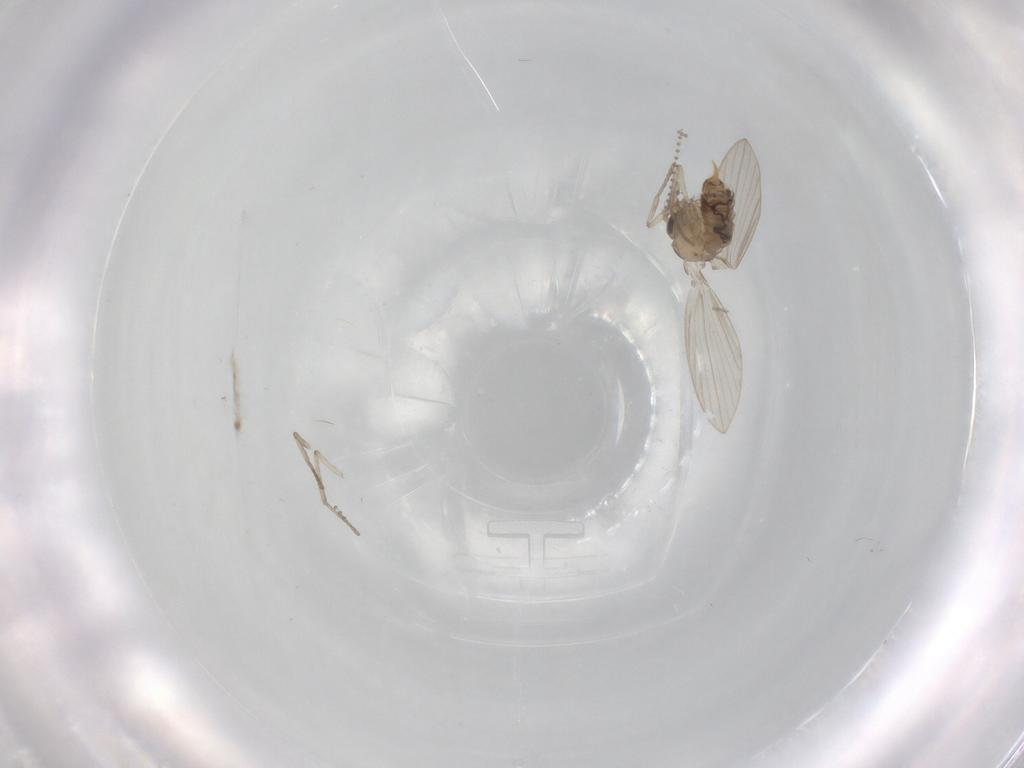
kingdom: Animalia
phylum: Arthropoda
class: Insecta
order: Diptera
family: Psychodidae
